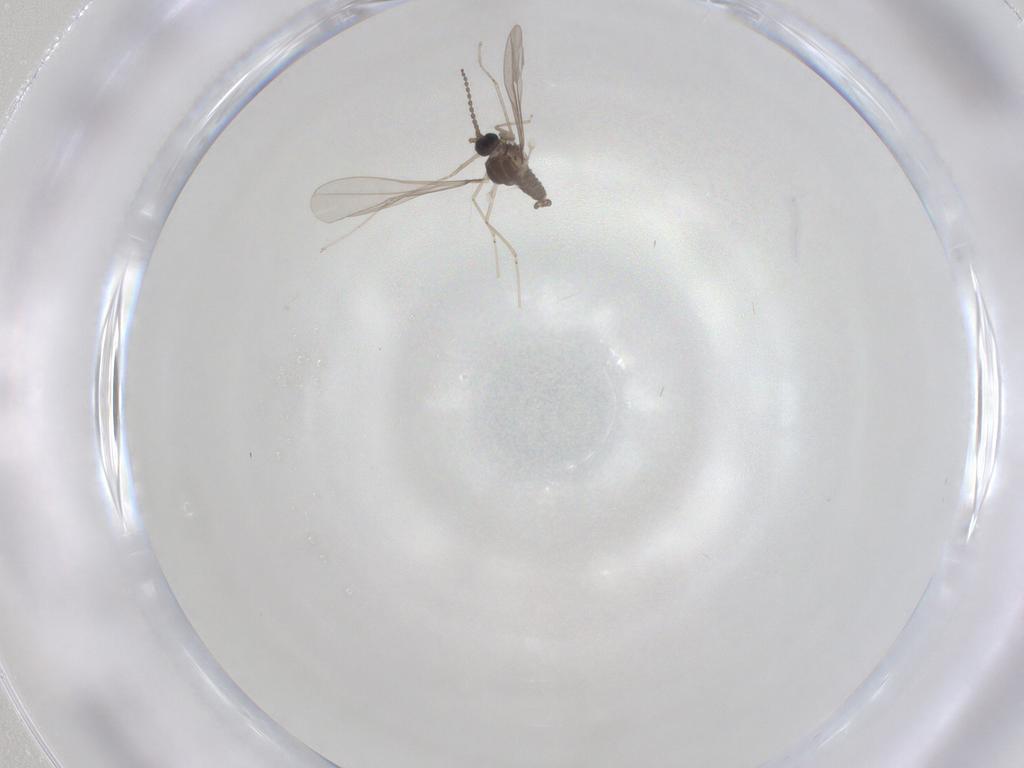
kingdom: Animalia
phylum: Arthropoda
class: Insecta
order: Diptera
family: Cecidomyiidae
